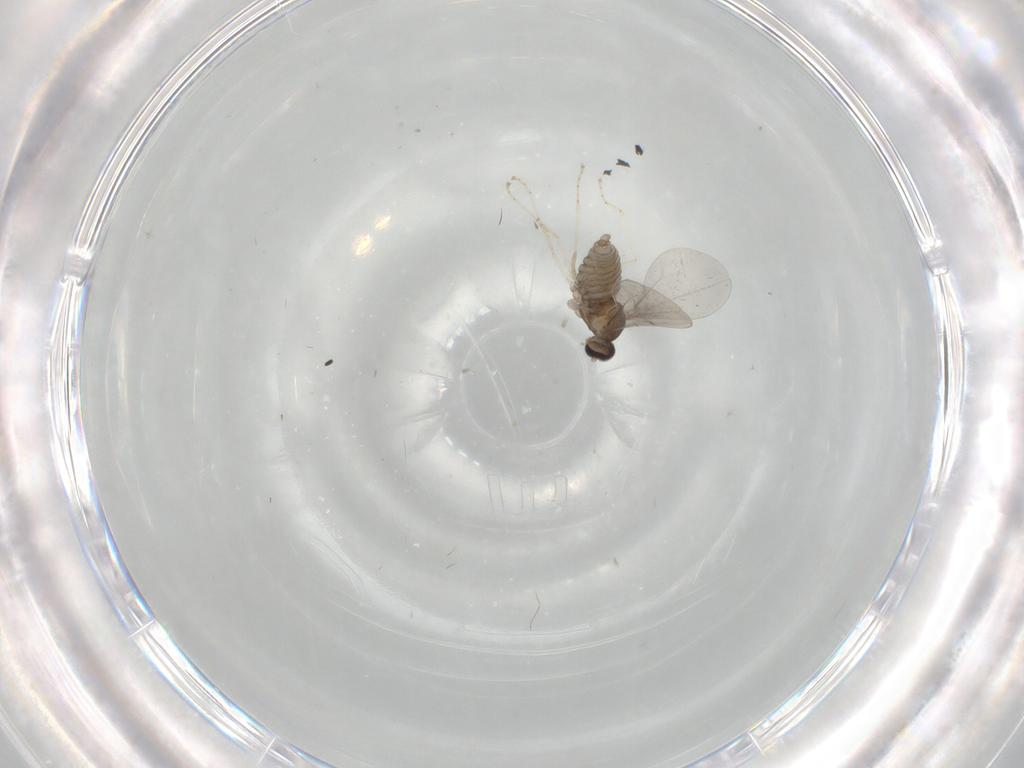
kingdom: Animalia
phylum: Arthropoda
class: Insecta
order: Diptera
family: Cecidomyiidae
